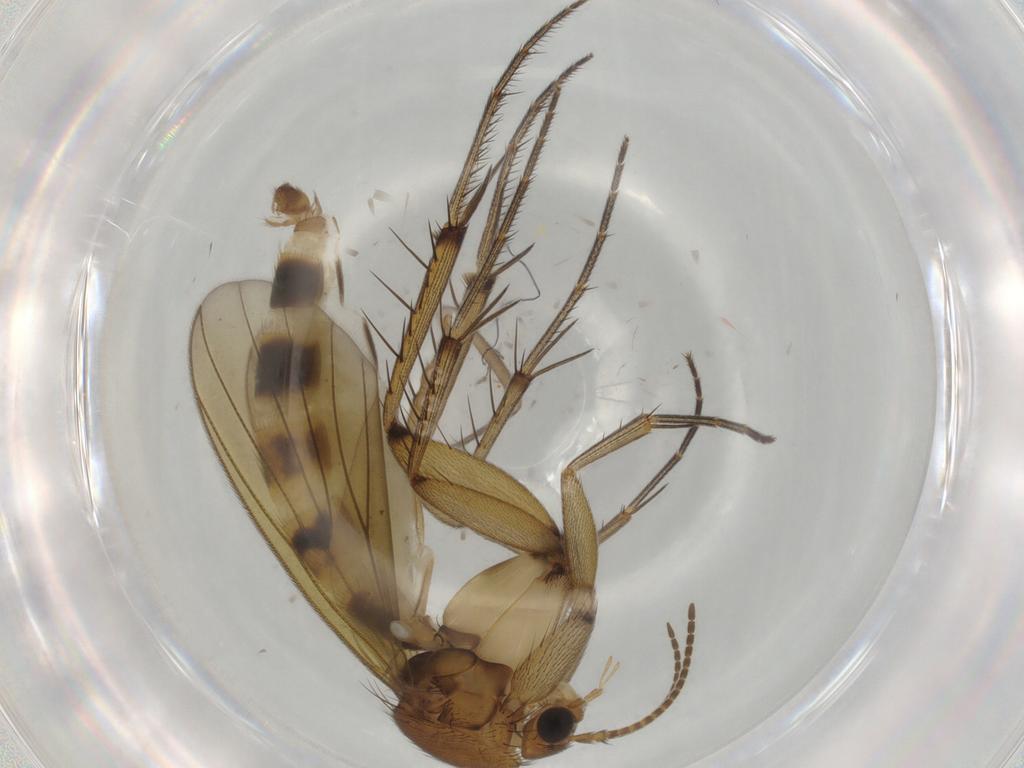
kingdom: Animalia
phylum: Arthropoda
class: Insecta
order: Diptera
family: Mycetophilidae
